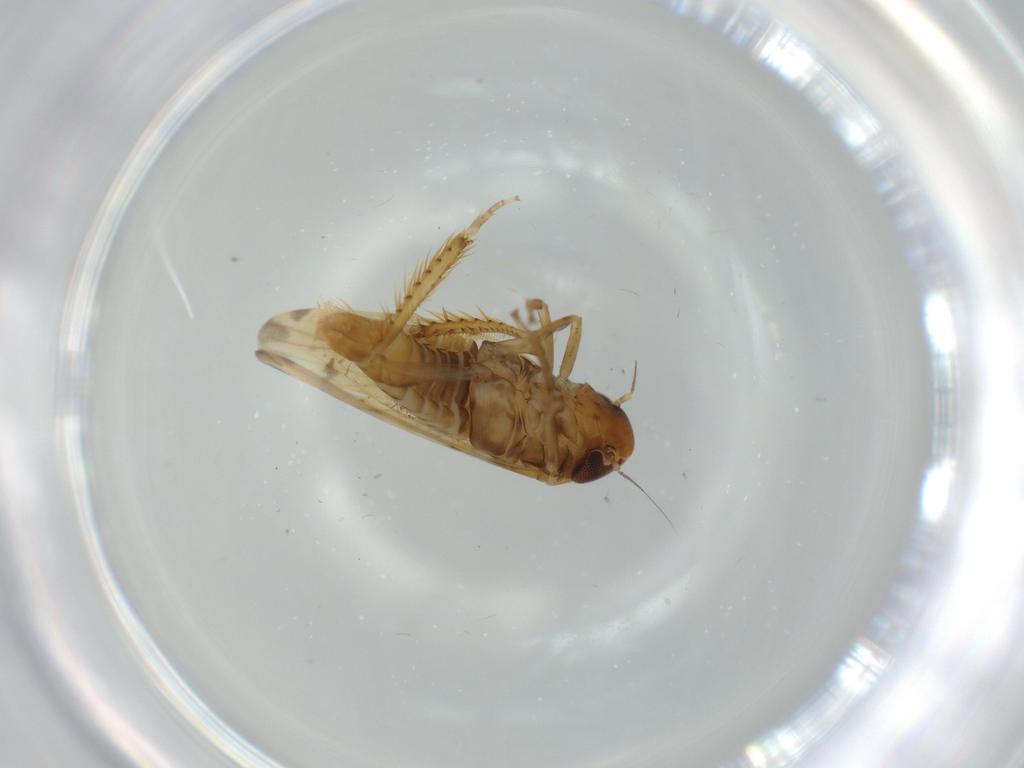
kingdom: Animalia
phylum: Arthropoda
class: Insecta
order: Hemiptera
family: Cicadellidae
